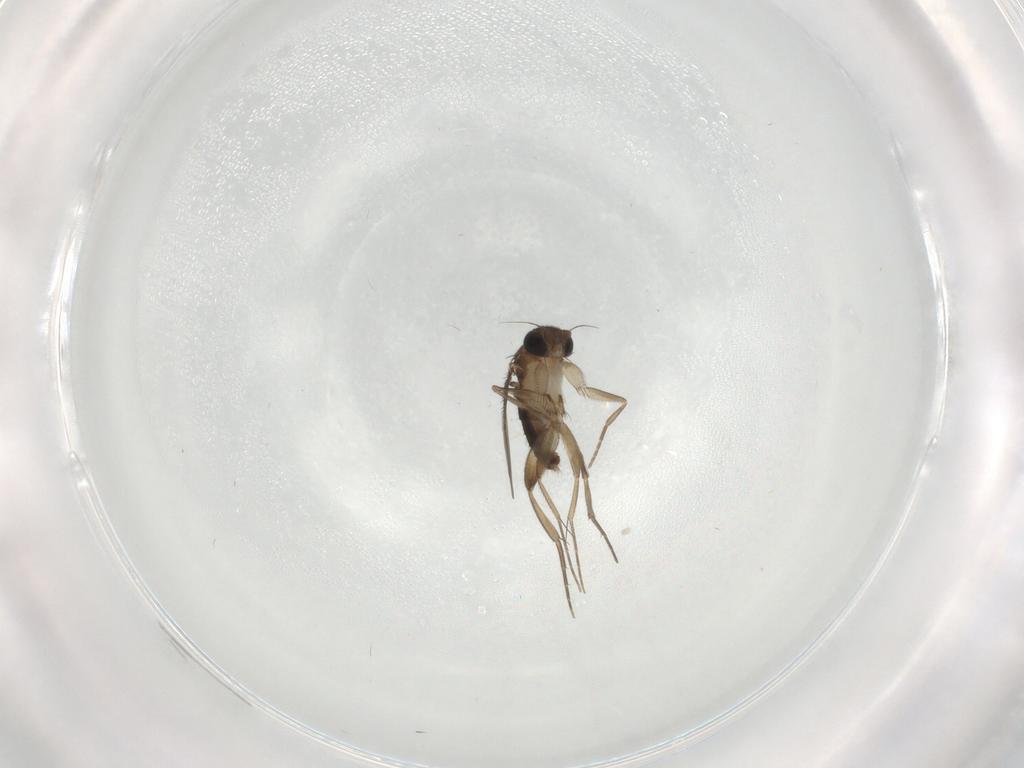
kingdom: Animalia
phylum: Arthropoda
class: Insecta
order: Diptera
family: Phoridae
